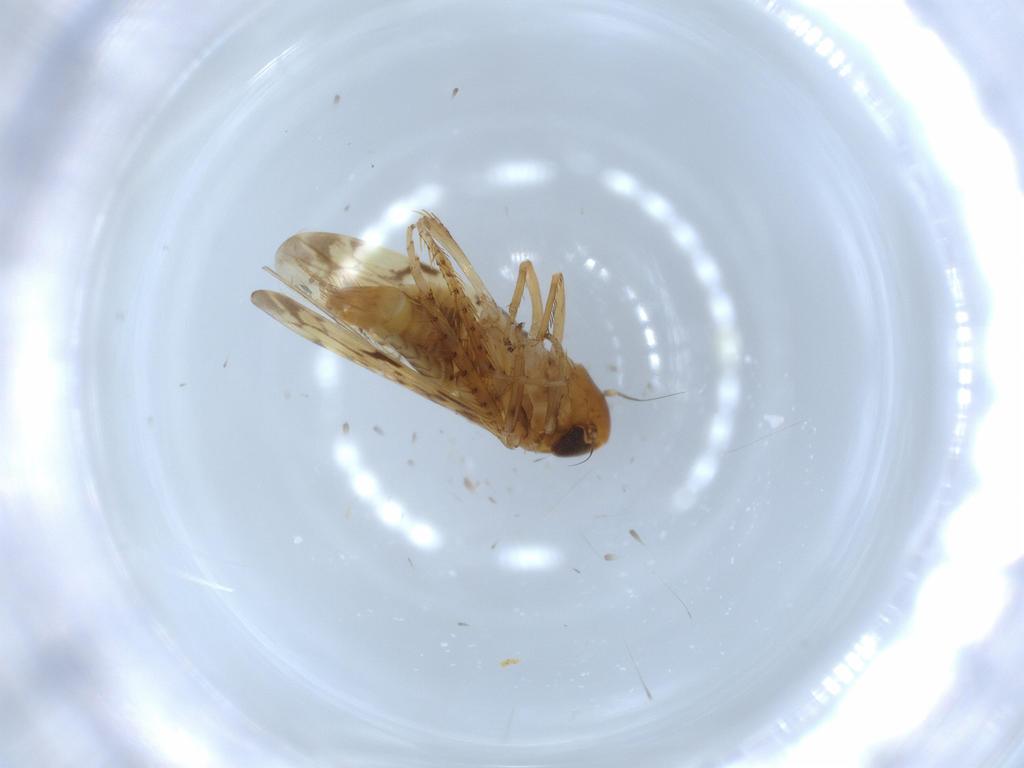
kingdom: Animalia
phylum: Arthropoda
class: Insecta
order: Hemiptera
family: Cicadellidae
